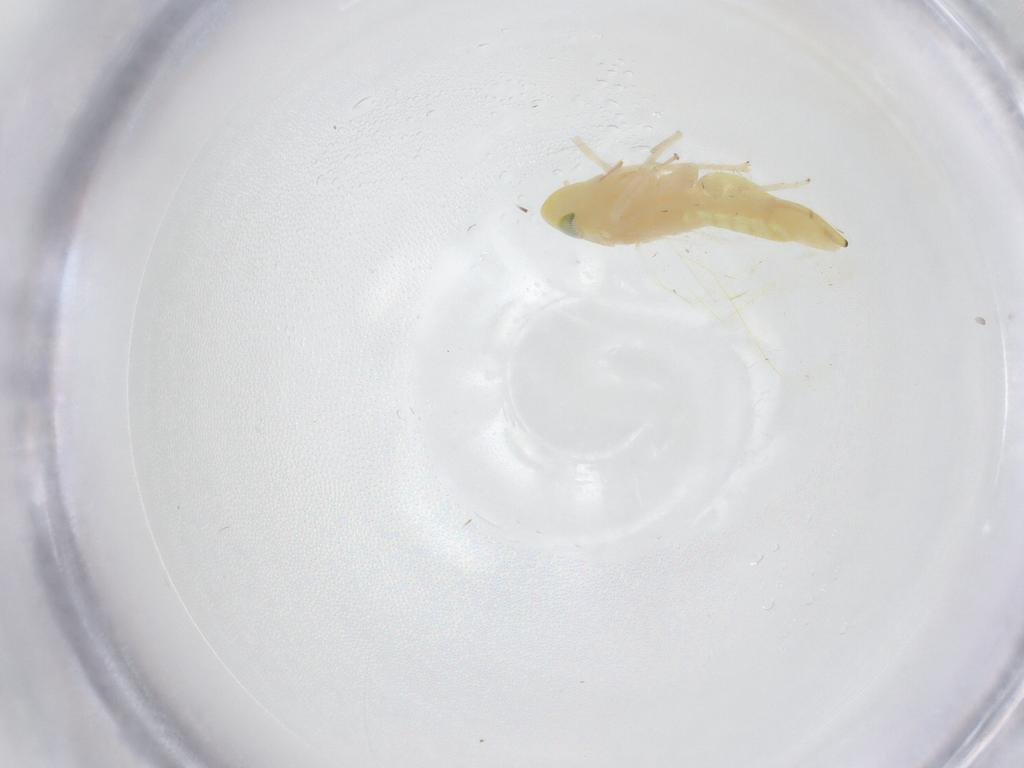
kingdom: Animalia
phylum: Arthropoda
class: Insecta
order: Hemiptera
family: Cicadellidae
